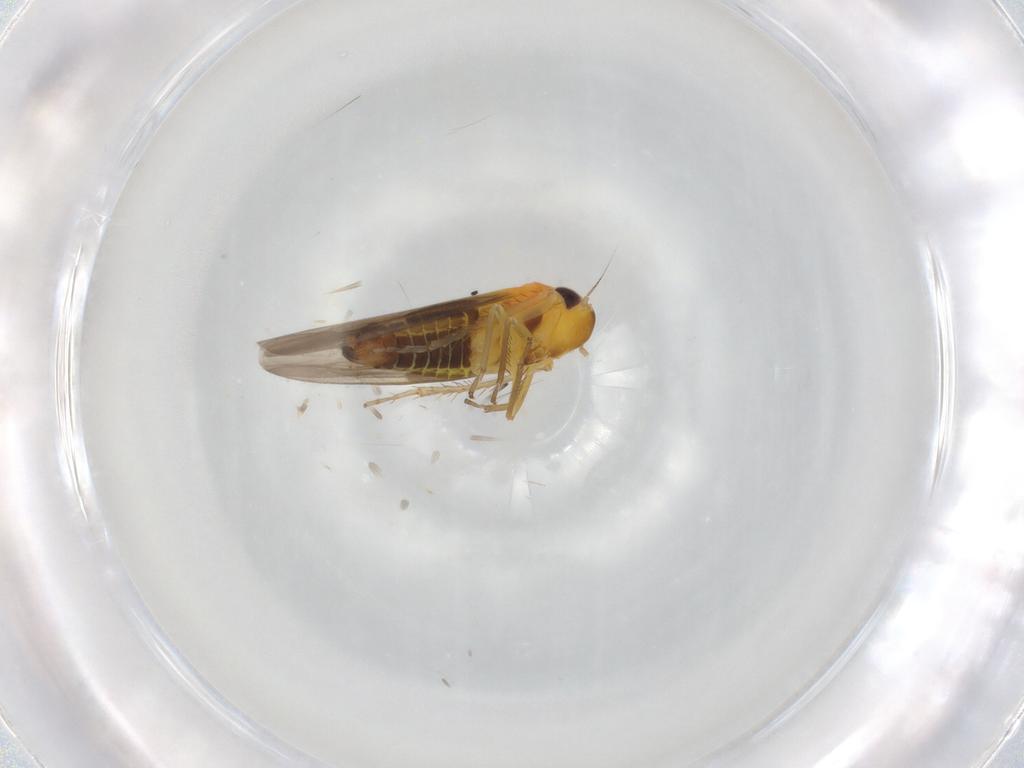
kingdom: Animalia
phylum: Arthropoda
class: Insecta
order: Hemiptera
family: Cicadellidae
